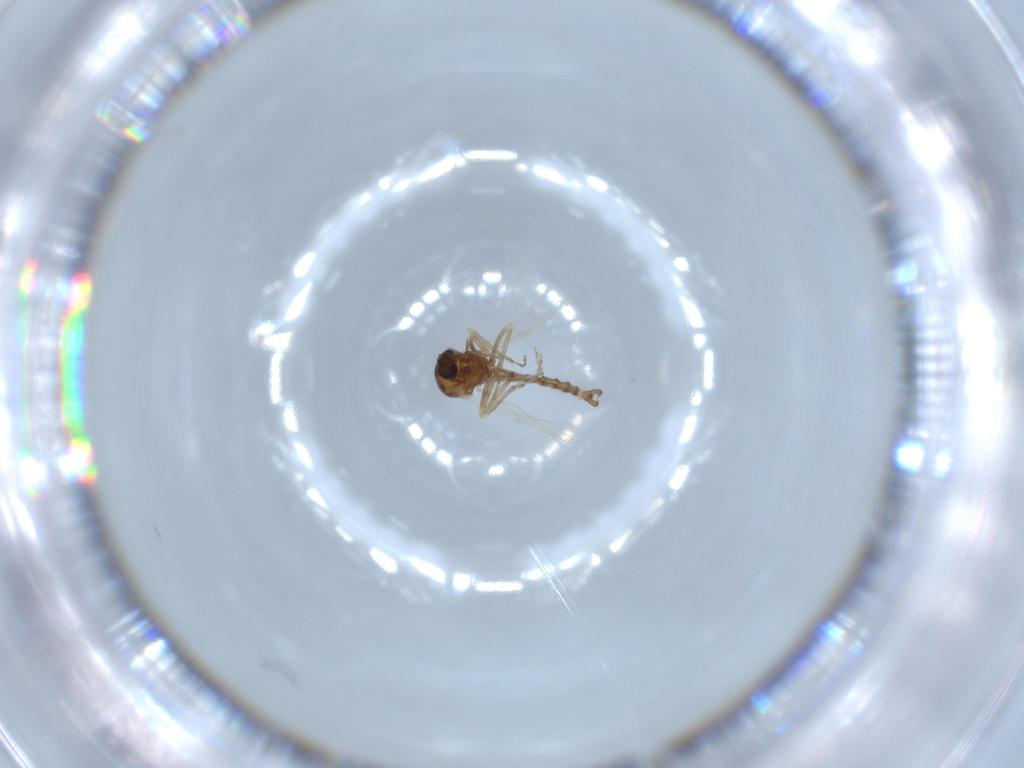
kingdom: Animalia
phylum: Arthropoda
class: Insecta
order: Diptera
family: Ceratopogonidae
